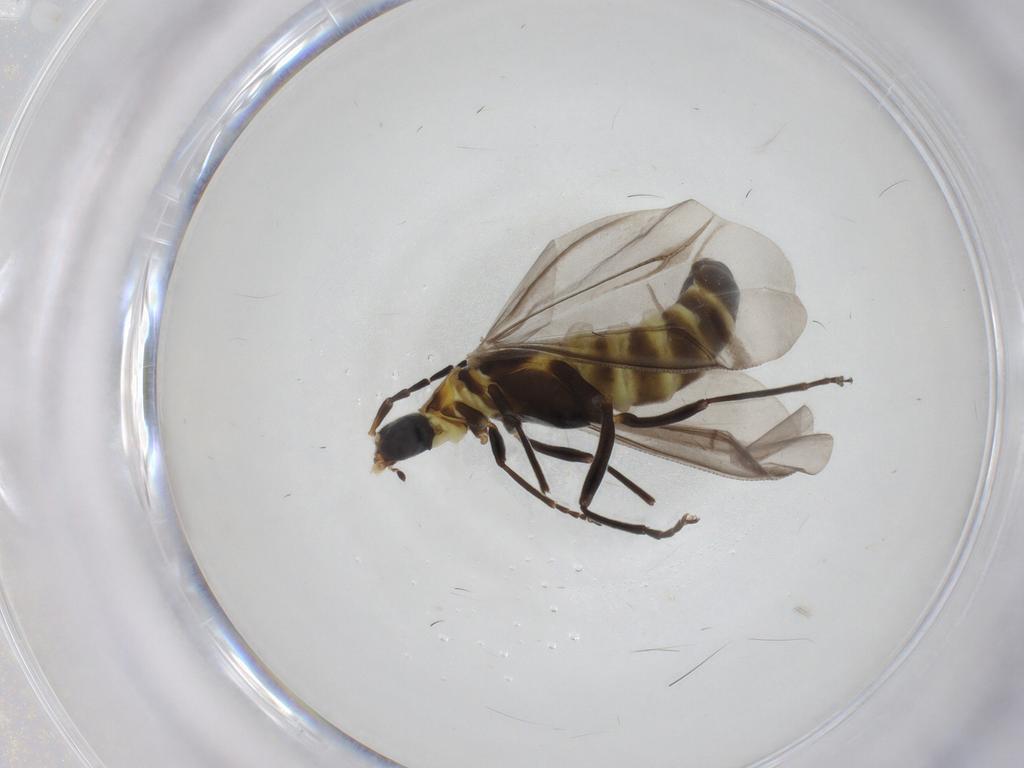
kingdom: Animalia
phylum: Arthropoda
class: Insecta
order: Coleoptera
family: Cantharidae
